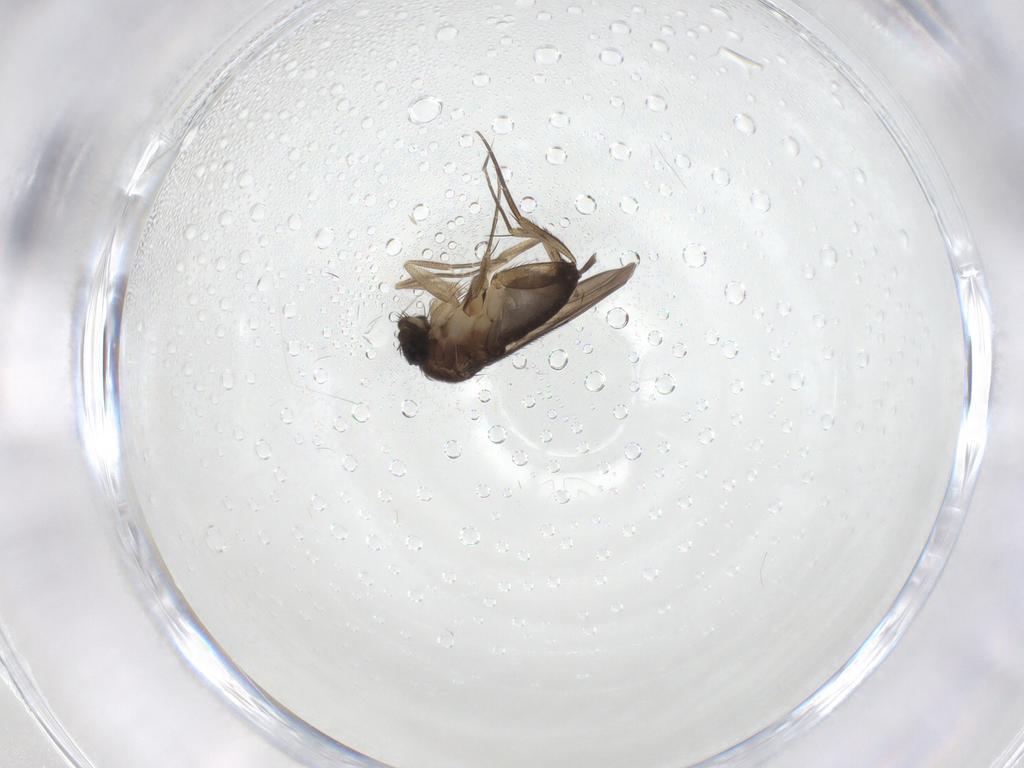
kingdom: Animalia
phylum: Arthropoda
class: Insecta
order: Diptera
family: Phoridae
